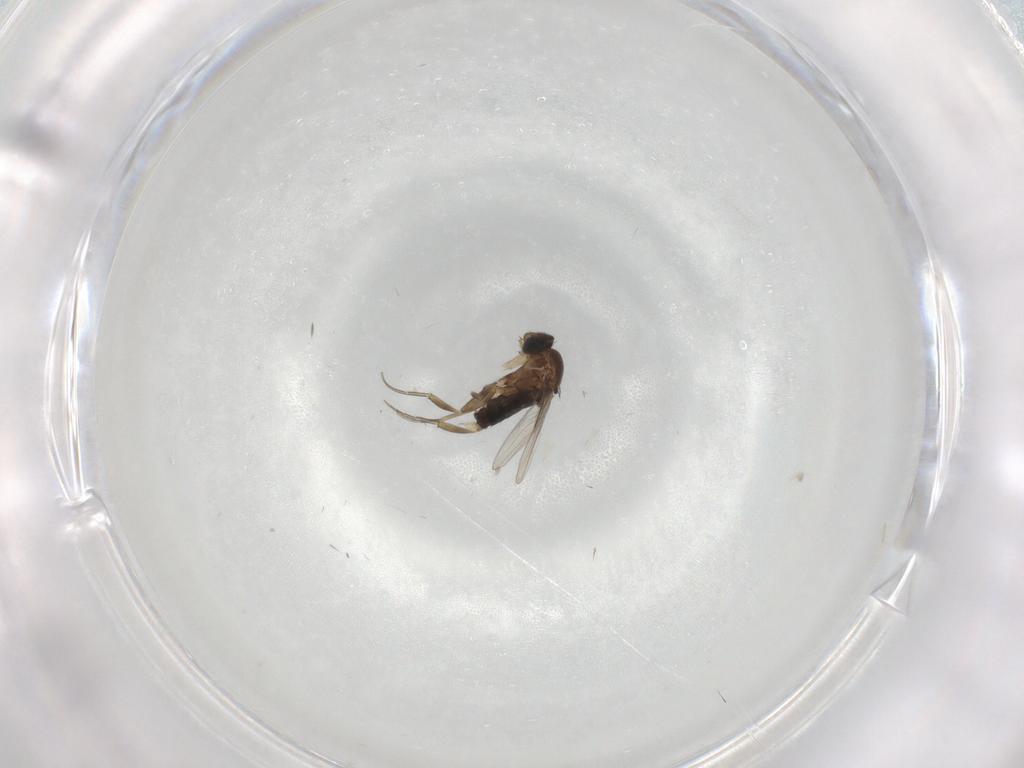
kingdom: Animalia
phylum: Arthropoda
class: Insecta
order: Diptera
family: Phoridae
